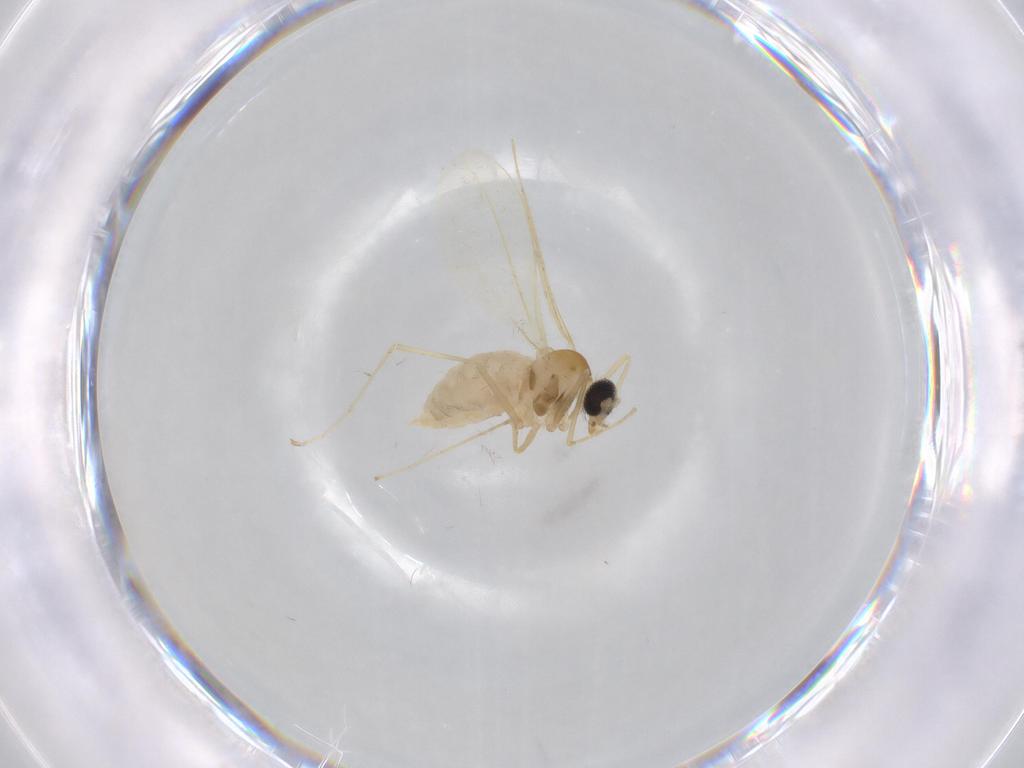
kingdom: Animalia
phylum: Arthropoda
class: Insecta
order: Diptera
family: Cecidomyiidae
